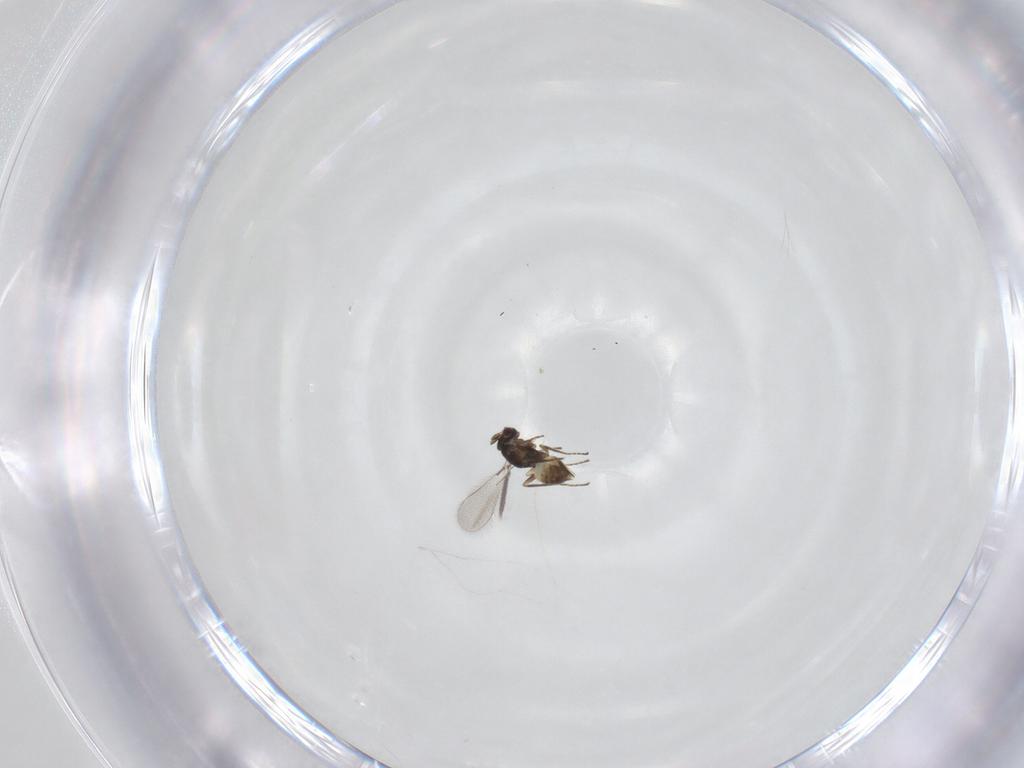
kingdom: Animalia
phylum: Arthropoda
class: Insecta
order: Hymenoptera
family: Mymaridae
